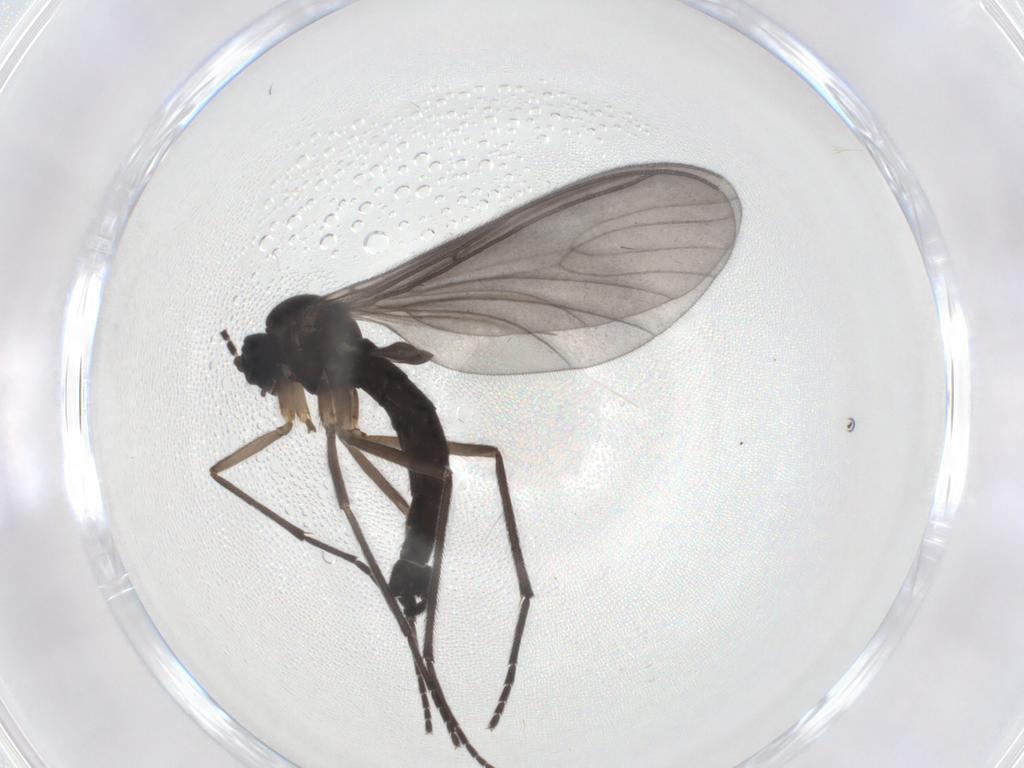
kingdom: Animalia
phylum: Arthropoda
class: Insecta
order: Diptera
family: Sciaridae
